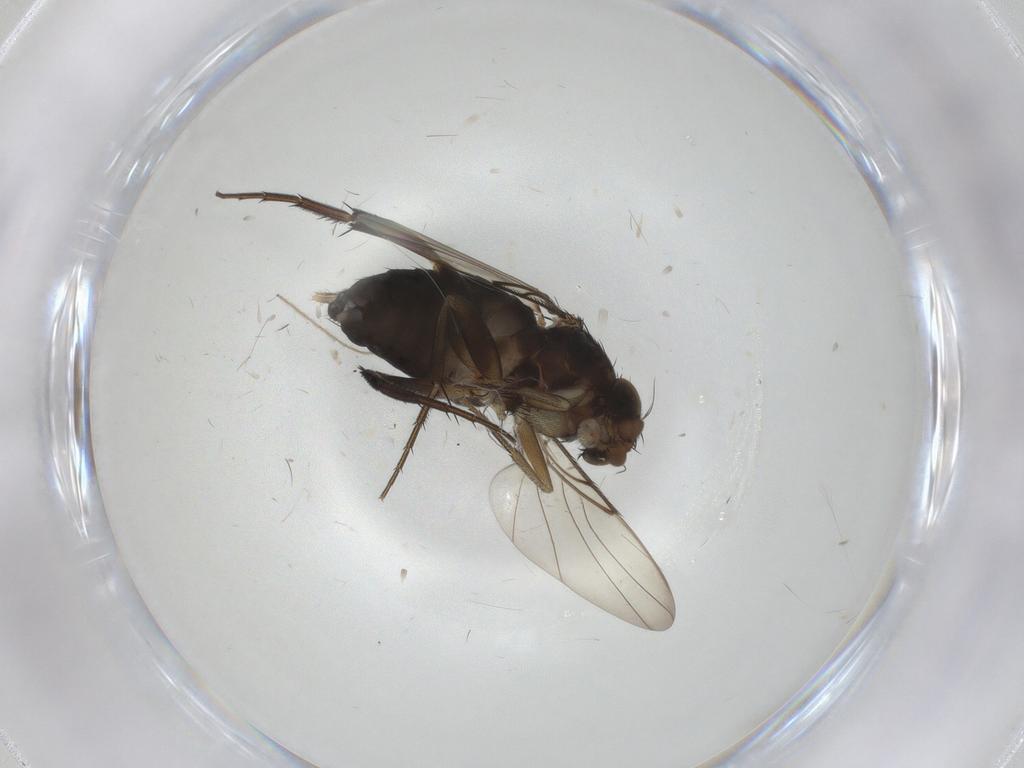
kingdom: Animalia
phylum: Arthropoda
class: Insecta
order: Diptera
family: Phoridae
